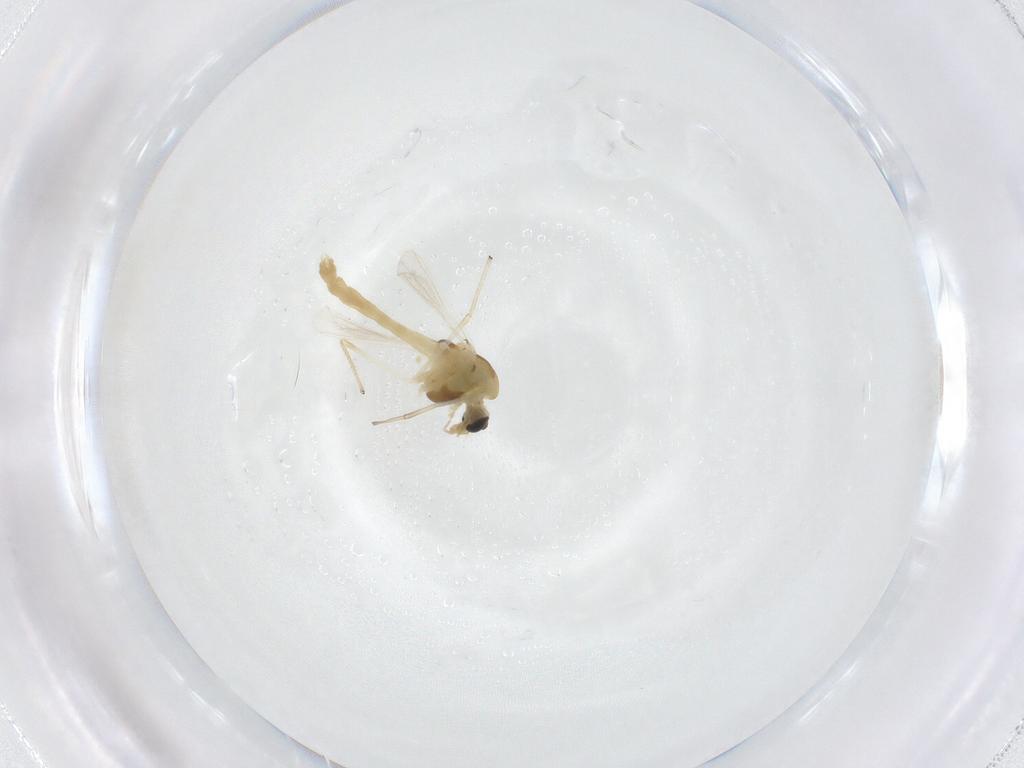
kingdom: Animalia
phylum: Arthropoda
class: Insecta
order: Diptera
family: Chironomidae
